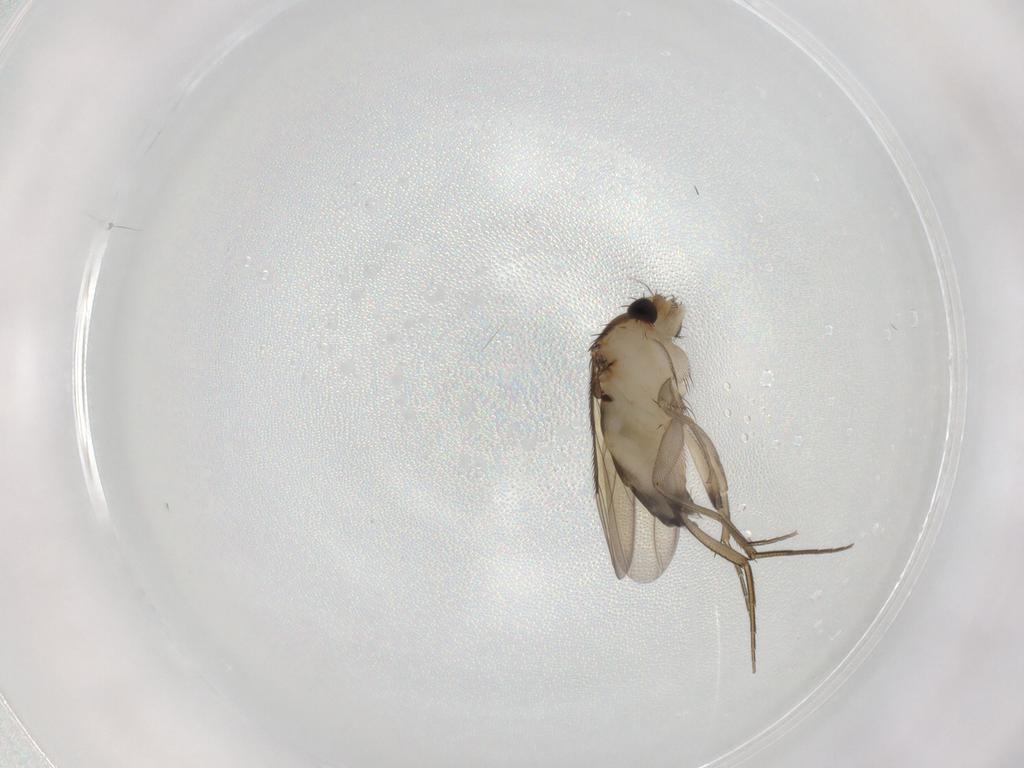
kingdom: Animalia
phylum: Arthropoda
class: Insecta
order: Diptera
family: Phoridae
